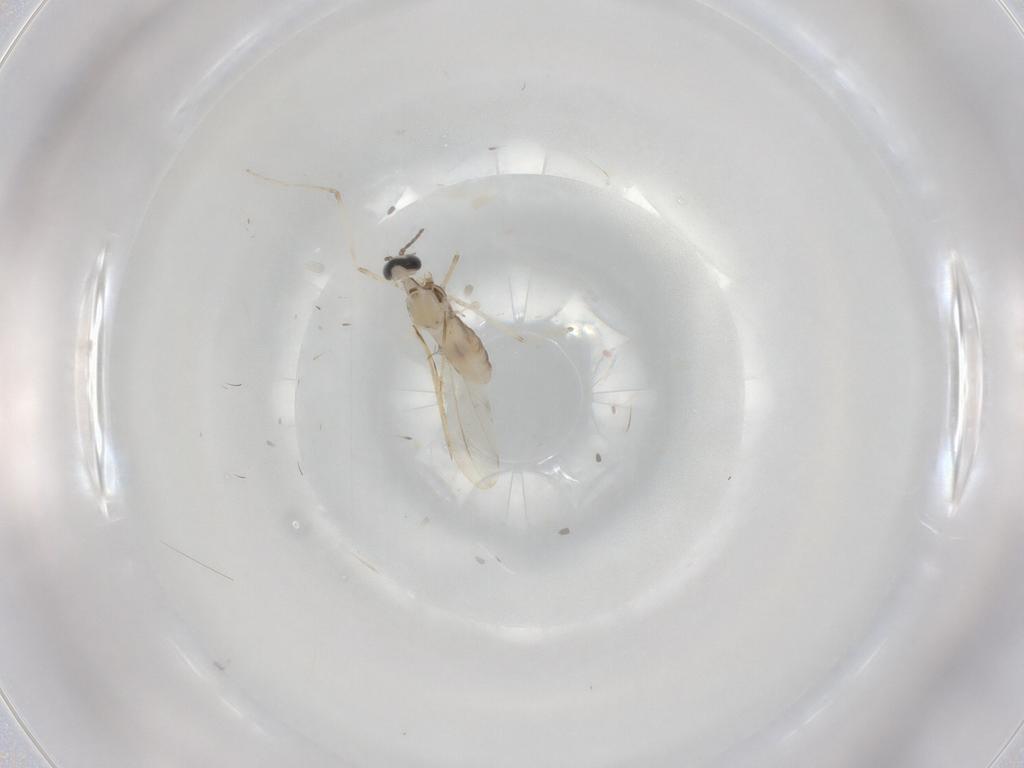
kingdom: Animalia
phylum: Arthropoda
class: Insecta
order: Diptera
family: Cecidomyiidae
